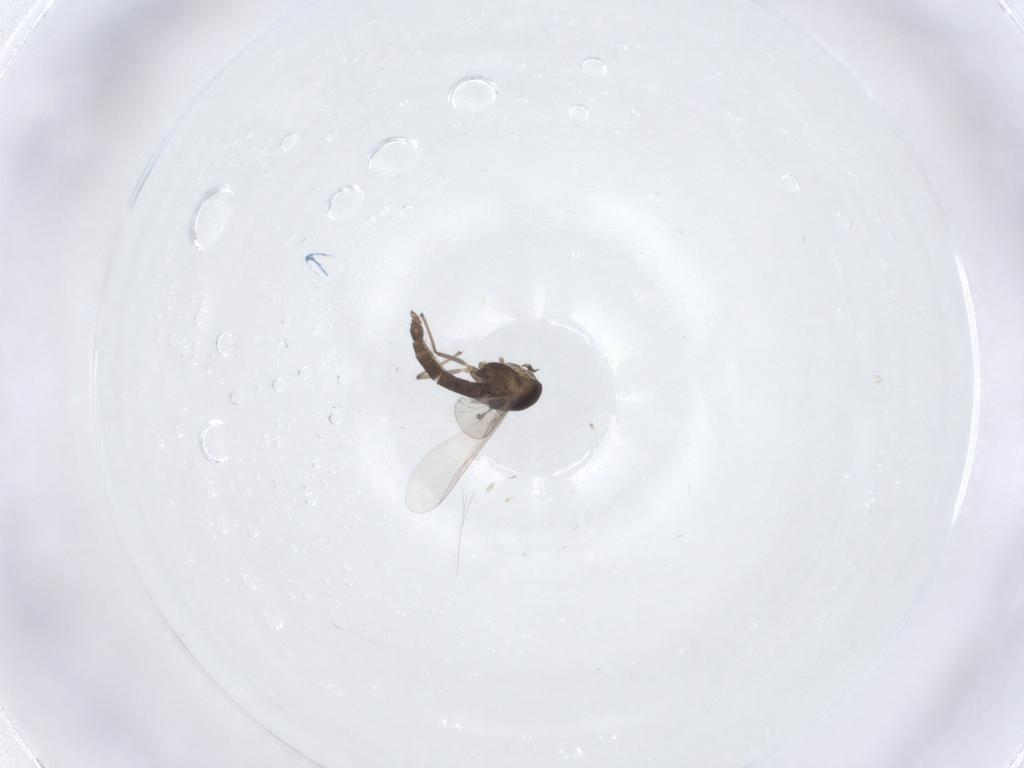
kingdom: Animalia
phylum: Arthropoda
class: Insecta
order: Diptera
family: Psychodidae
